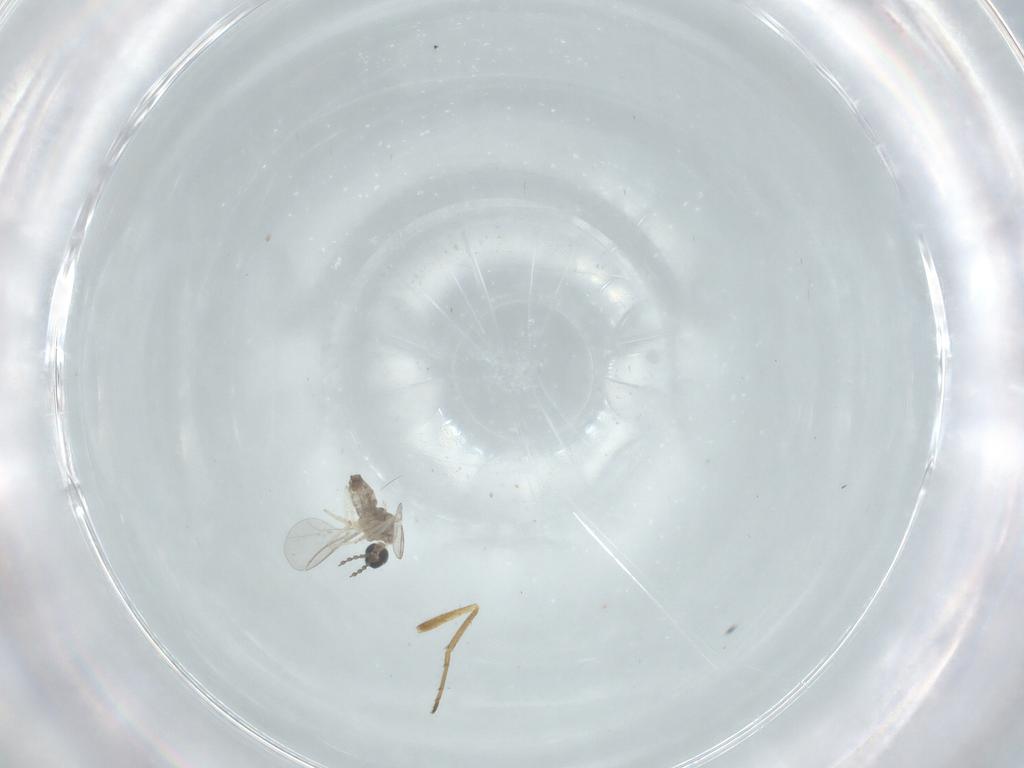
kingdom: Animalia
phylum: Arthropoda
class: Insecta
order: Diptera
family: Cecidomyiidae
